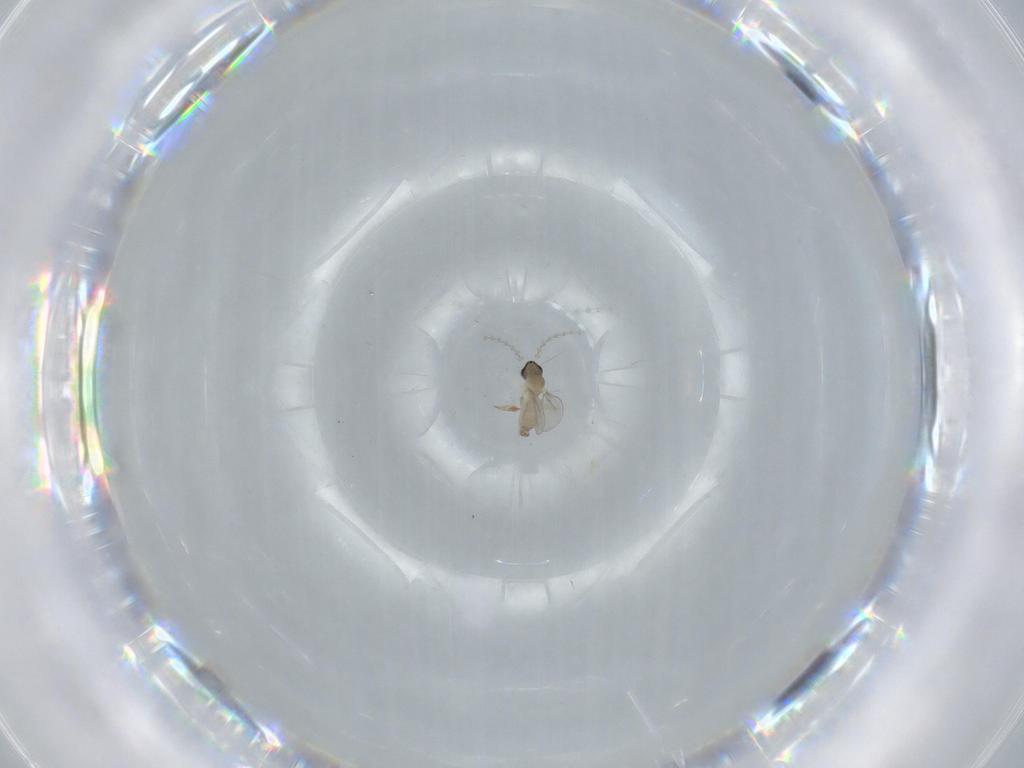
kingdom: Animalia
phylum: Arthropoda
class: Insecta
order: Diptera
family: Cecidomyiidae
